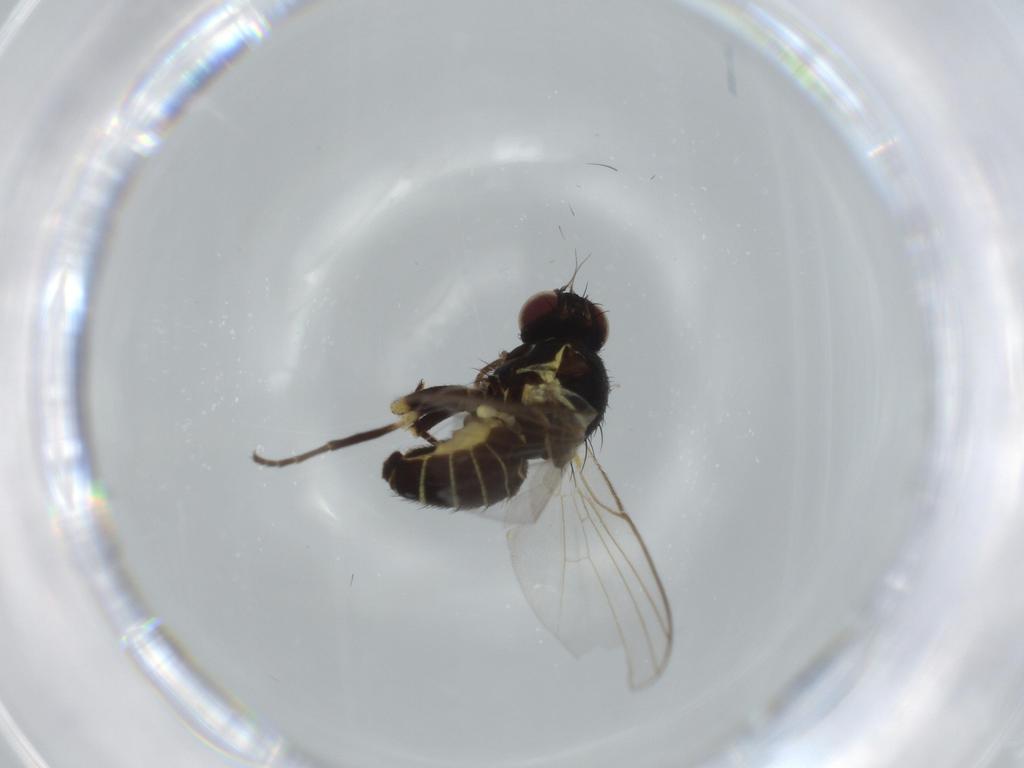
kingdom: Animalia
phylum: Arthropoda
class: Insecta
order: Diptera
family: Agromyzidae
